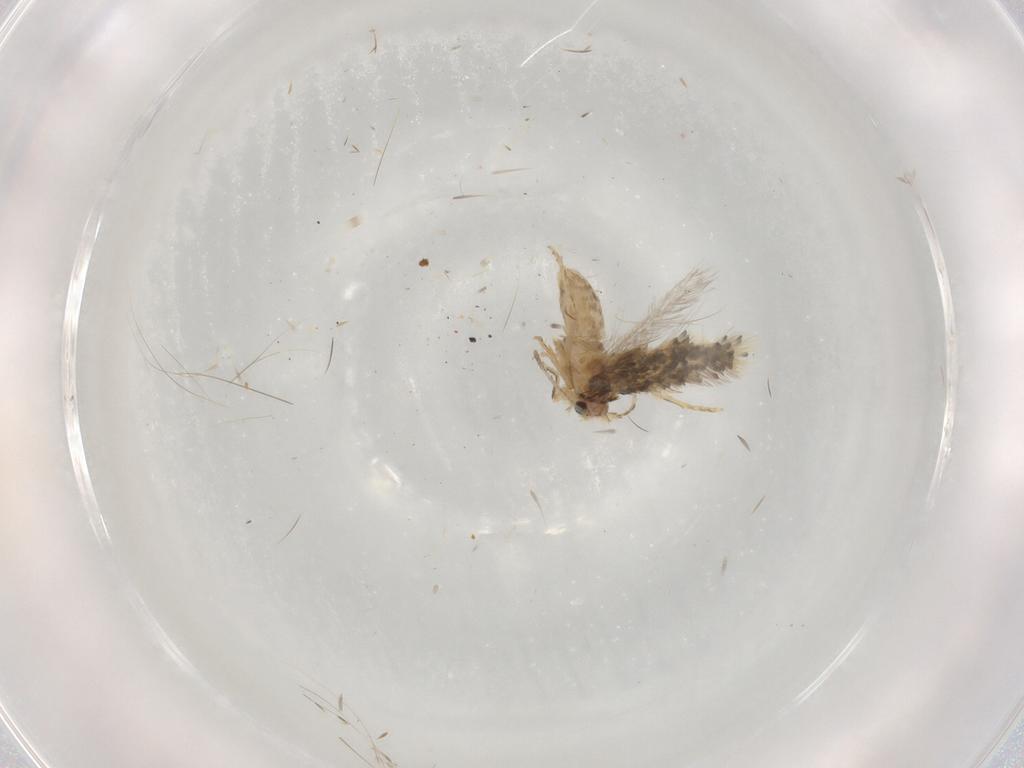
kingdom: Animalia
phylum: Arthropoda
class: Insecta
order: Lepidoptera
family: Nepticulidae
